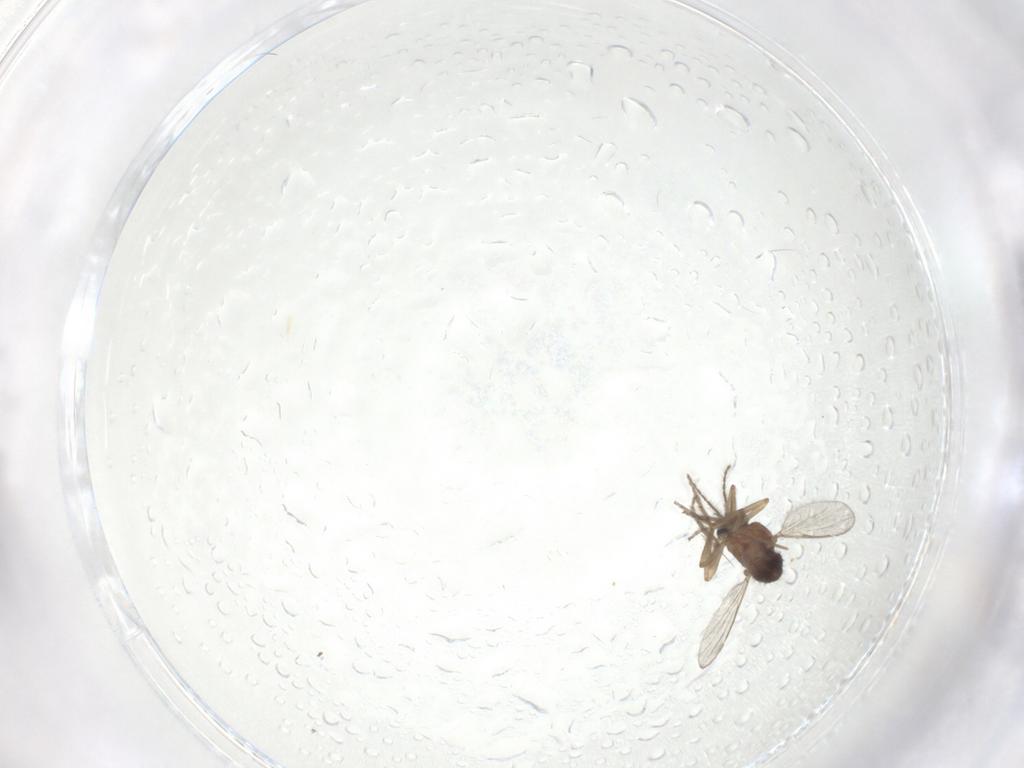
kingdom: Animalia
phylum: Arthropoda
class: Insecta
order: Diptera
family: Ceratopogonidae
